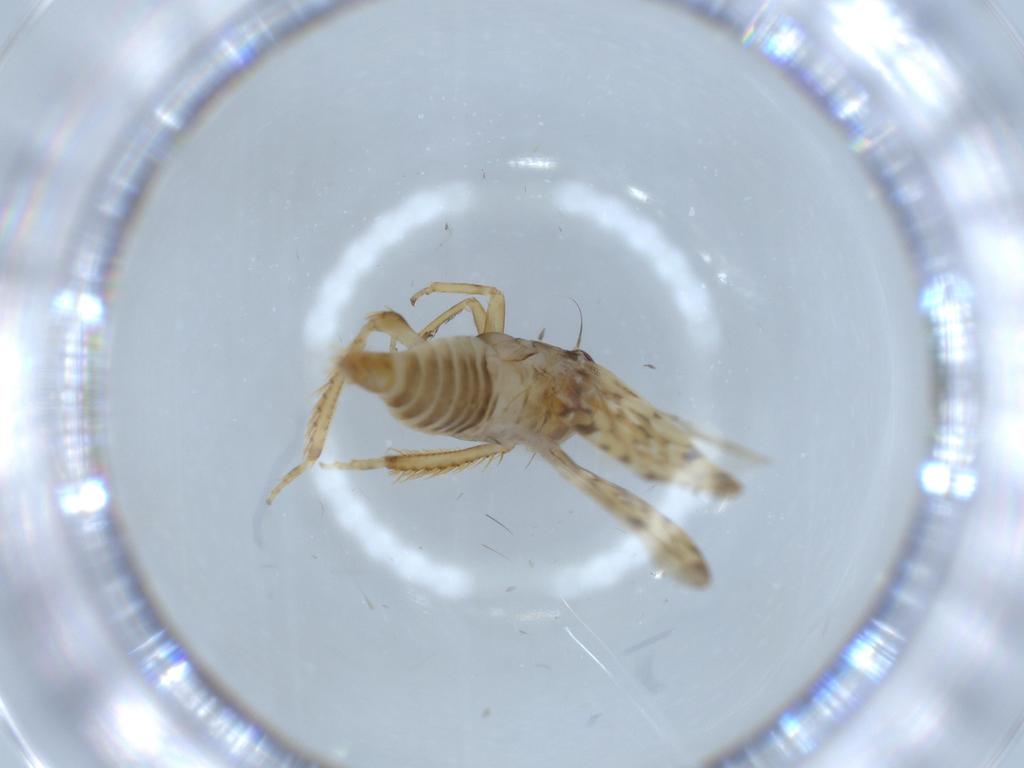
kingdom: Animalia
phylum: Arthropoda
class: Insecta
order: Hemiptera
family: Cicadellidae
